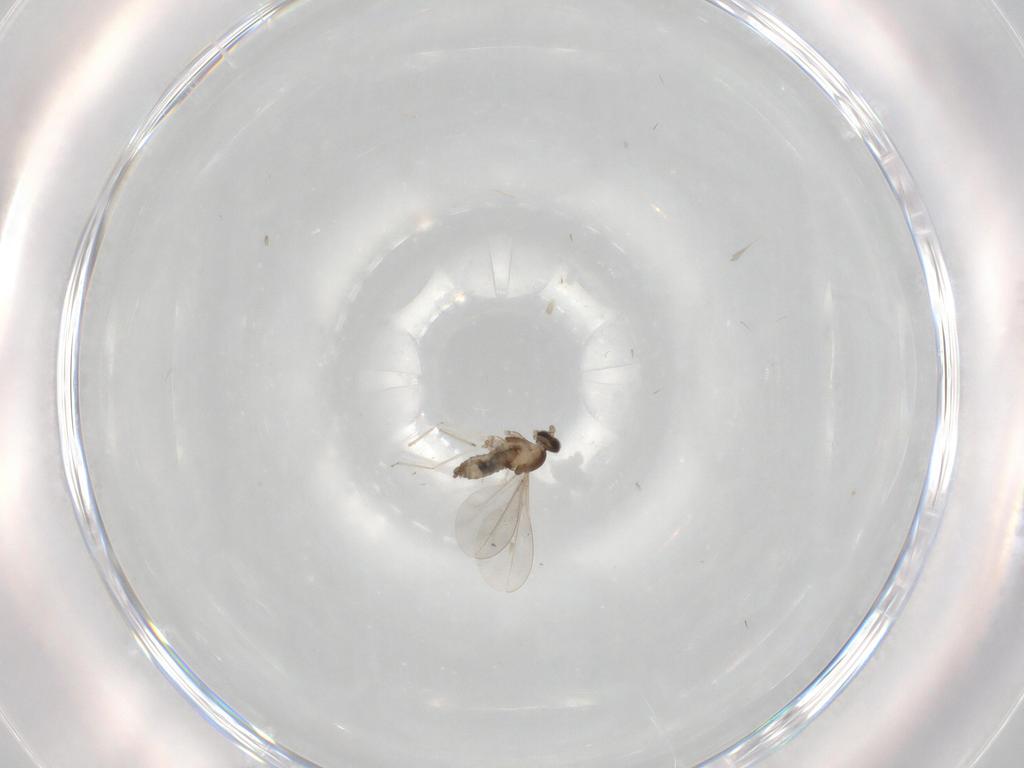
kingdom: Animalia
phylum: Arthropoda
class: Insecta
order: Diptera
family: Cecidomyiidae
